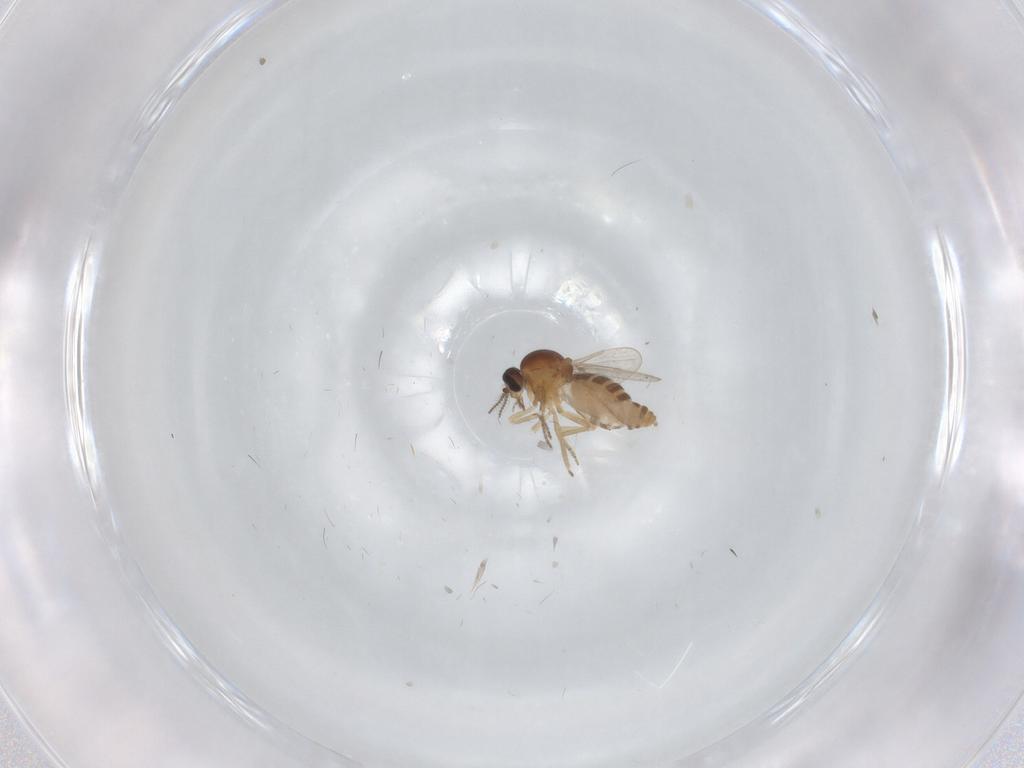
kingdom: Animalia
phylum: Arthropoda
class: Insecta
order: Diptera
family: Ceratopogonidae
